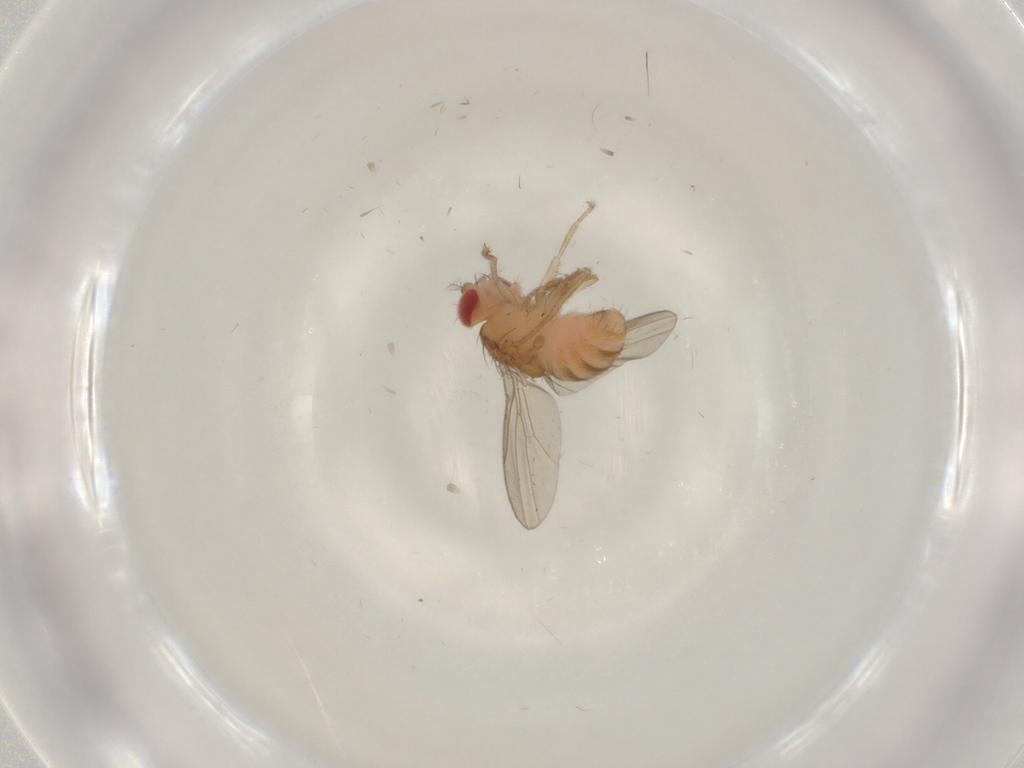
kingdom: Animalia
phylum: Arthropoda
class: Insecta
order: Diptera
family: Drosophilidae
